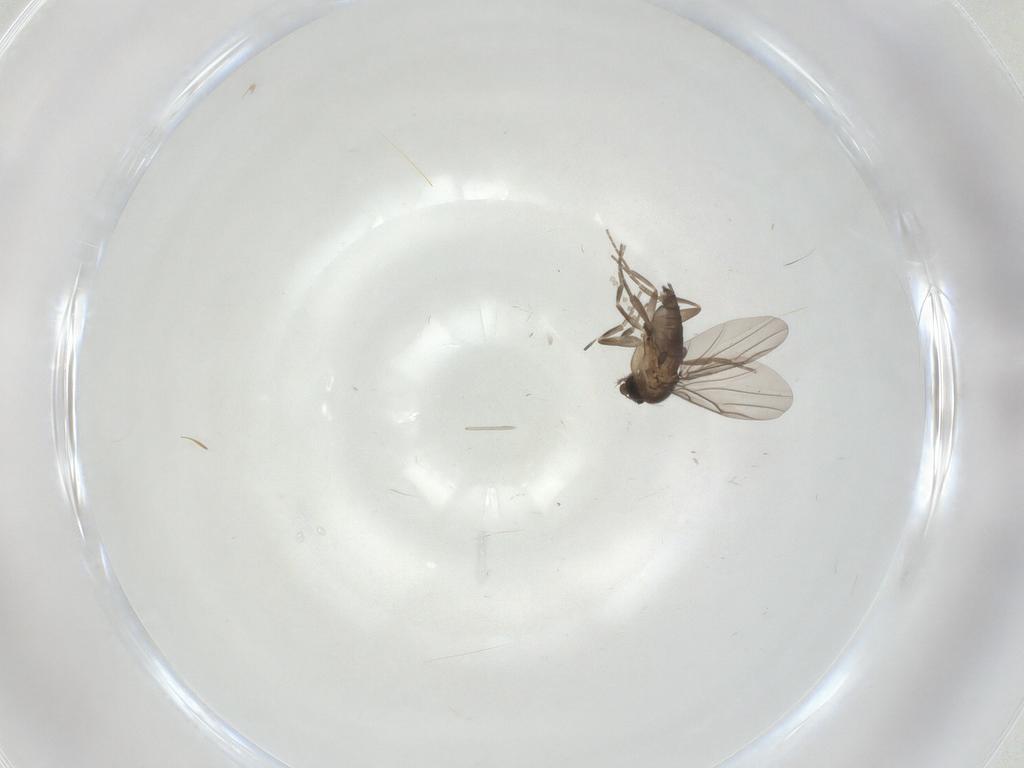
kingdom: Animalia
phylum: Arthropoda
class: Insecta
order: Diptera
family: Cecidomyiidae
